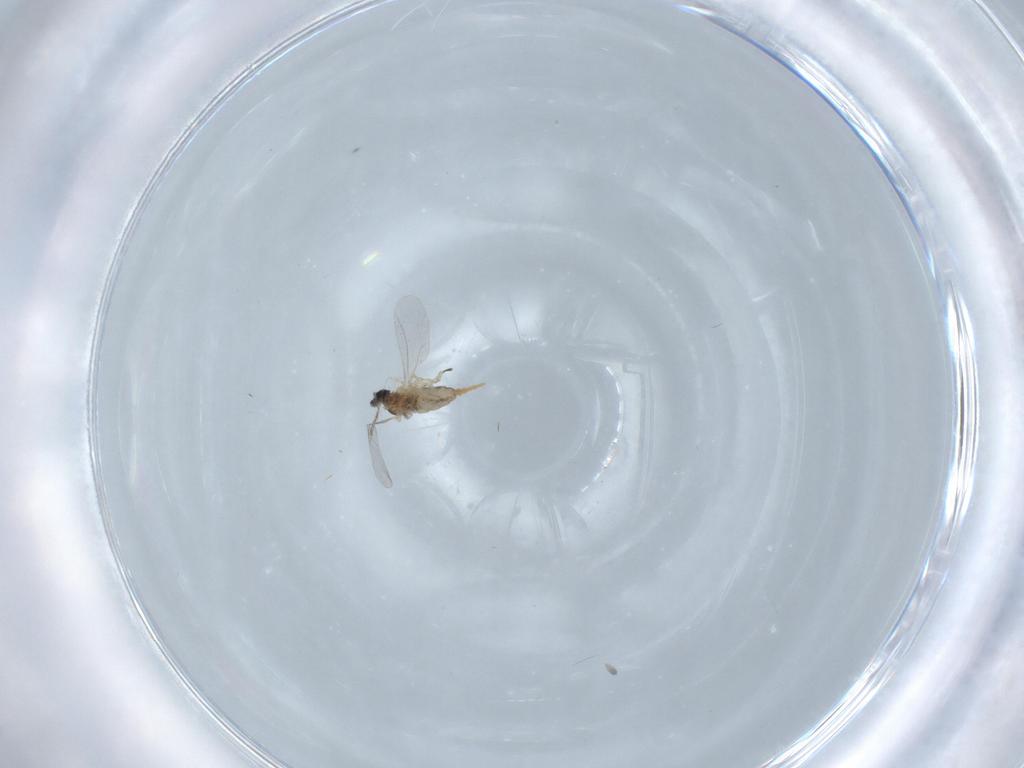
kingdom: Animalia
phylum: Arthropoda
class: Insecta
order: Diptera
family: Cecidomyiidae
